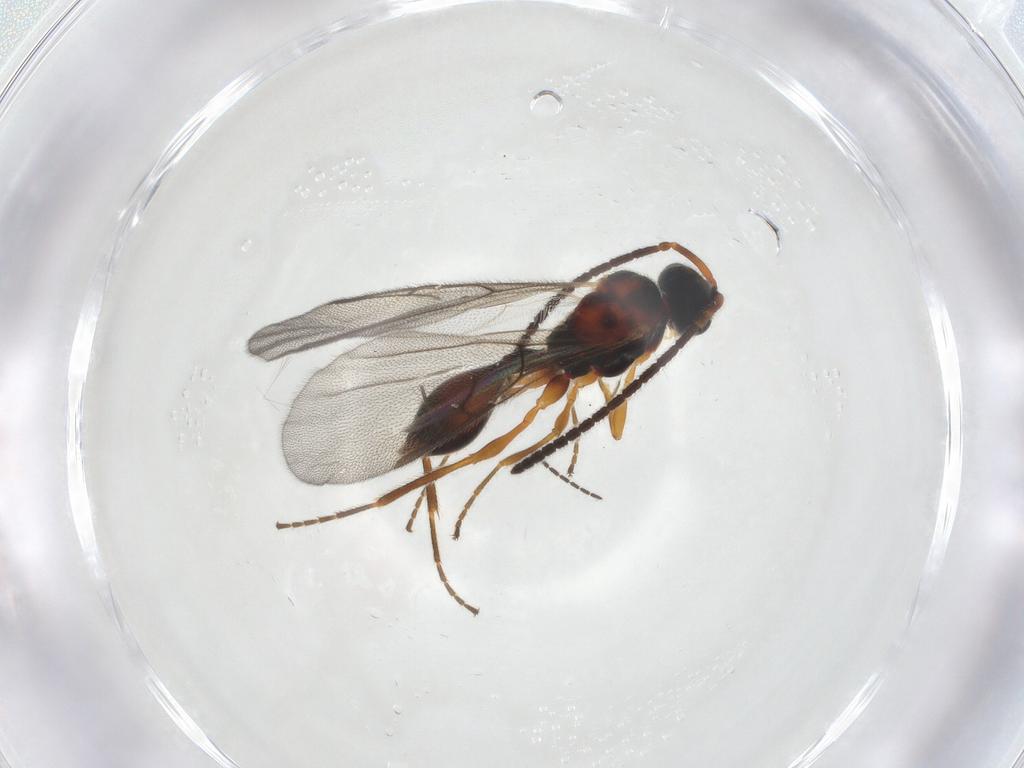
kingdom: Animalia
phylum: Arthropoda
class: Insecta
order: Hymenoptera
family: Diapriidae
